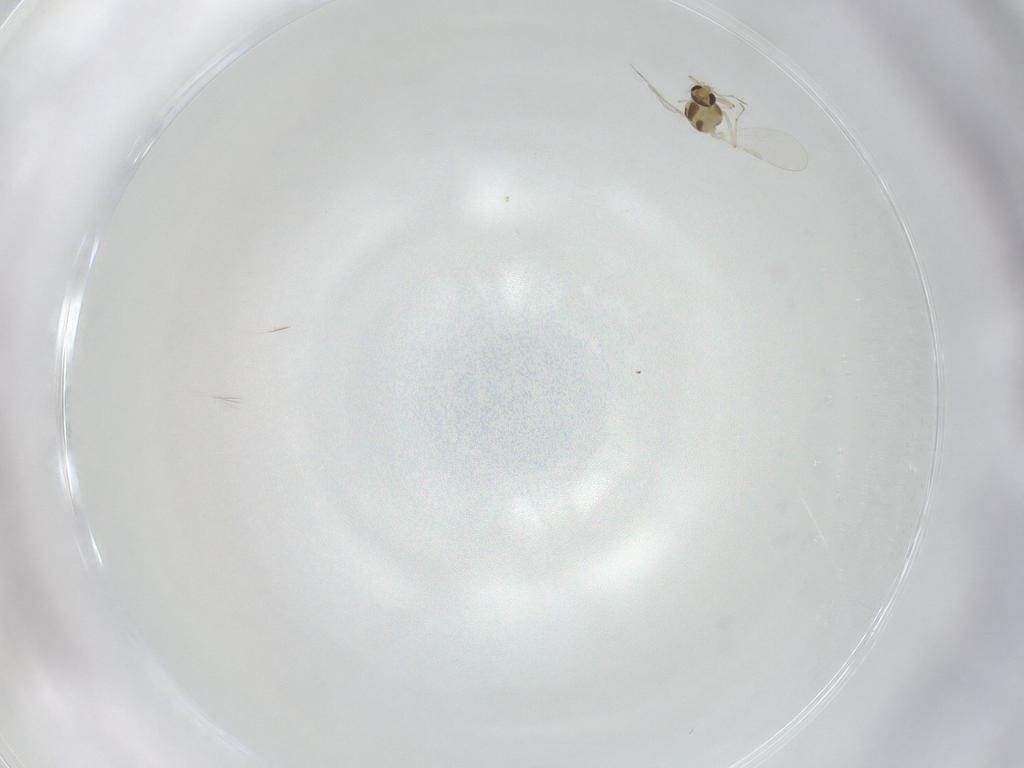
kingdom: Animalia
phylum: Arthropoda
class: Insecta
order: Diptera
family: Chironomidae
